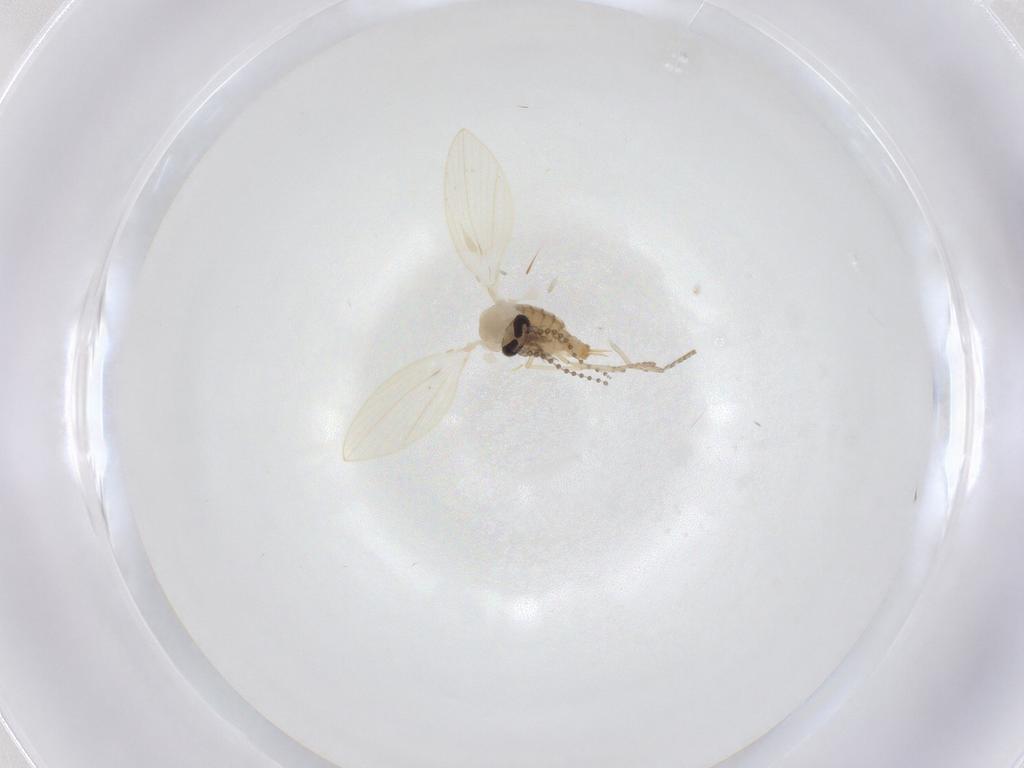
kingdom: Animalia
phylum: Arthropoda
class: Insecta
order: Diptera
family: Psychodidae
